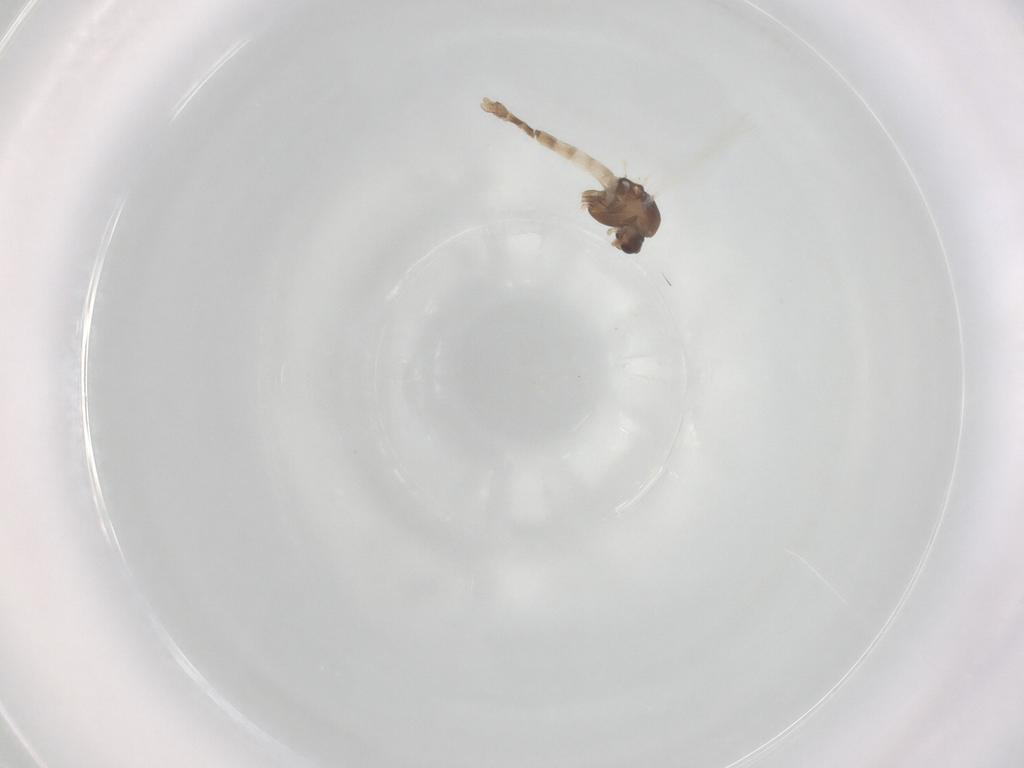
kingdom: Animalia
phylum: Arthropoda
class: Insecta
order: Diptera
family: Chironomidae
